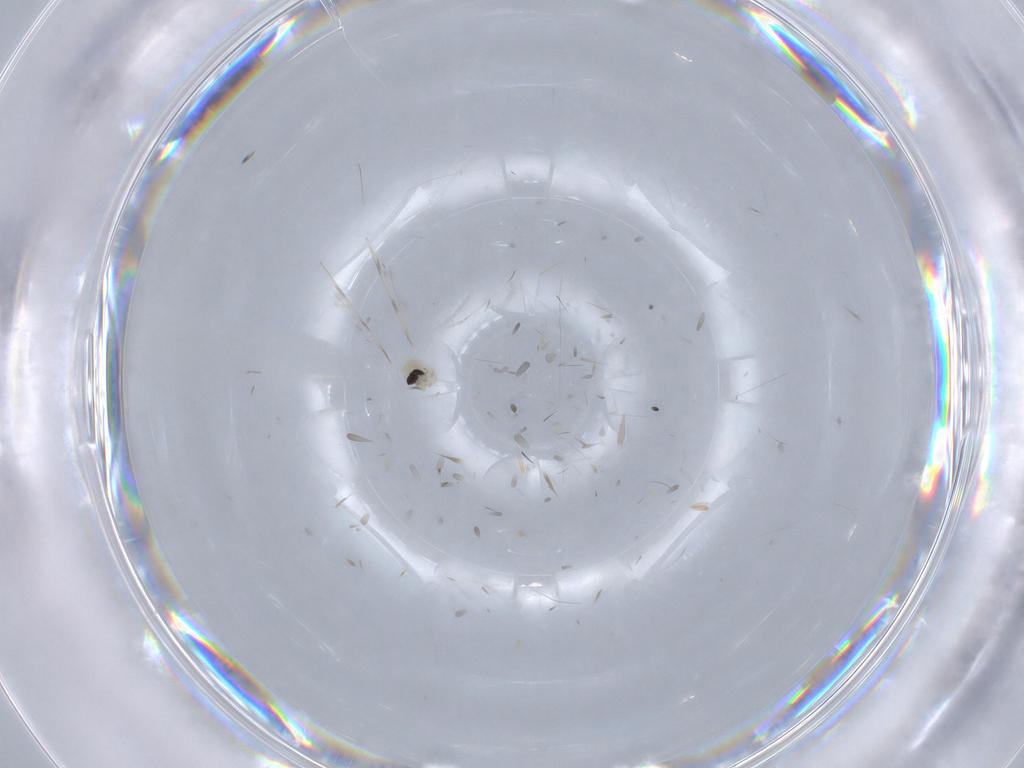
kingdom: Animalia
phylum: Arthropoda
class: Insecta
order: Diptera
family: Cecidomyiidae
